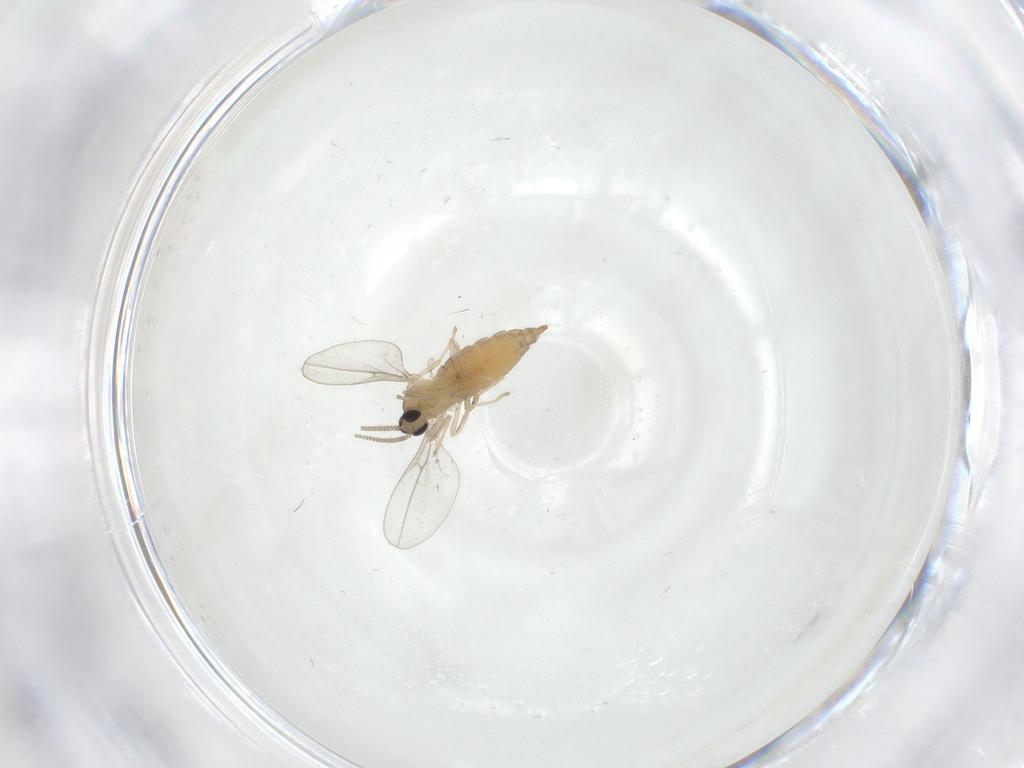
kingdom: Animalia
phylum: Arthropoda
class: Insecta
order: Diptera
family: Cecidomyiidae
